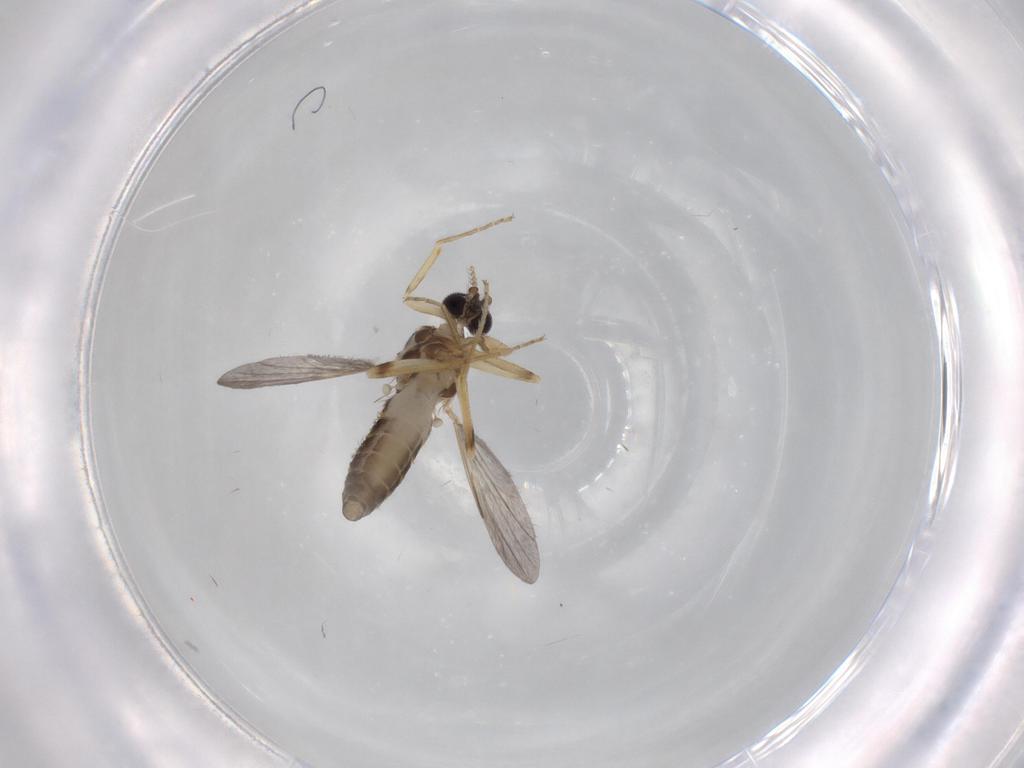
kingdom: Animalia
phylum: Arthropoda
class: Insecta
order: Diptera
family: Ceratopogonidae
